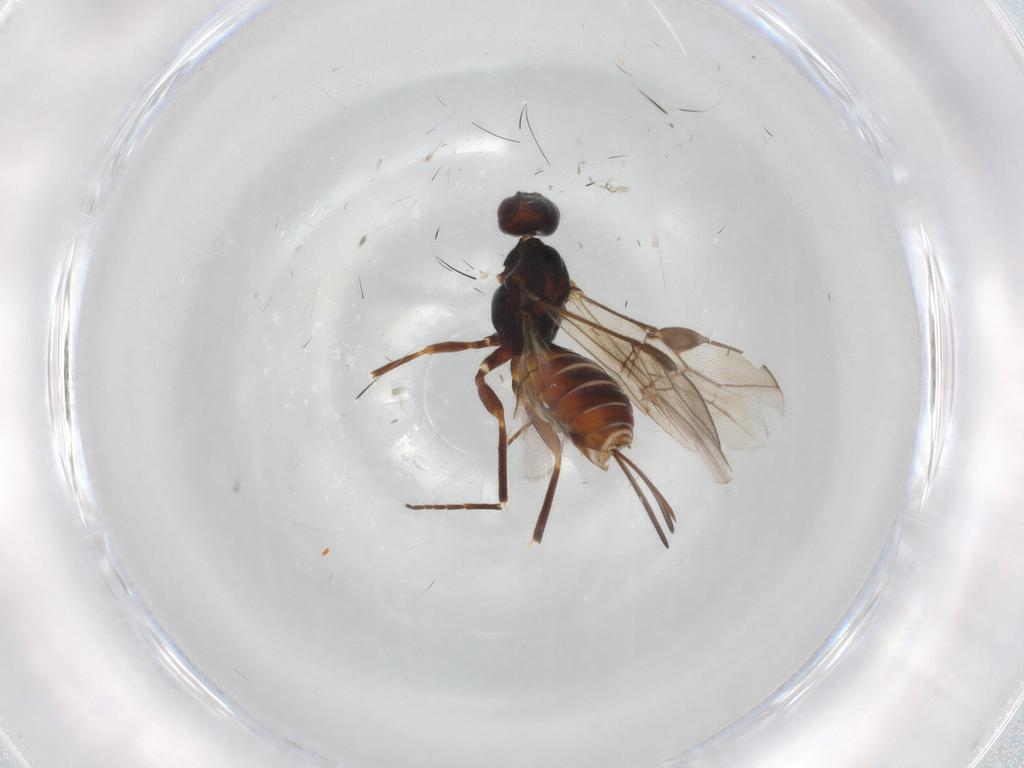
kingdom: Animalia
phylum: Arthropoda
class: Insecta
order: Hymenoptera
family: Braconidae
